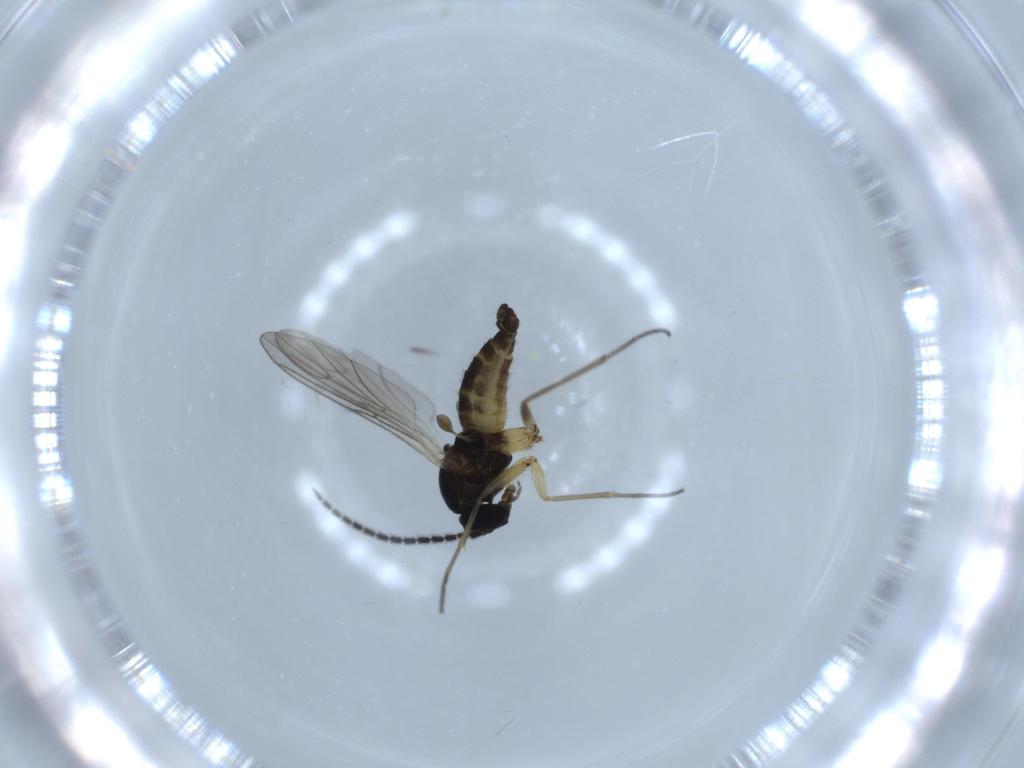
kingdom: Animalia
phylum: Arthropoda
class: Insecta
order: Diptera
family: Sciaridae
